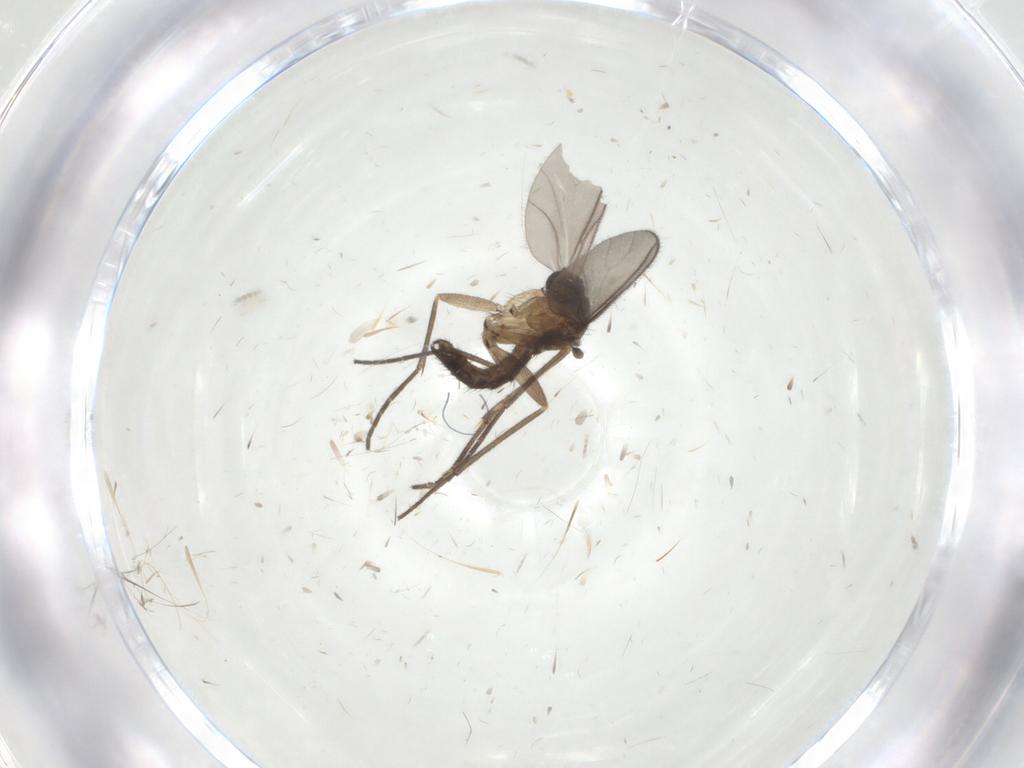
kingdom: Animalia
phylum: Arthropoda
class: Insecta
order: Diptera
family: Sciaridae
